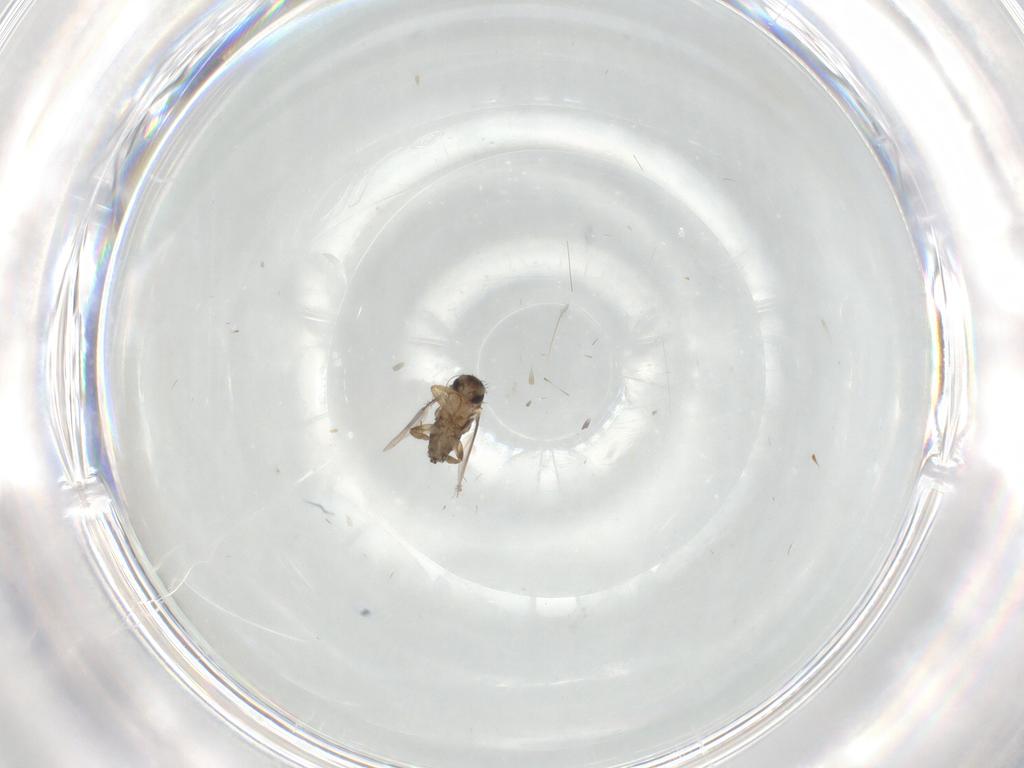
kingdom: Animalia
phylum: Arthropoda
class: Insecta
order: Diptera
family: Phoridae
